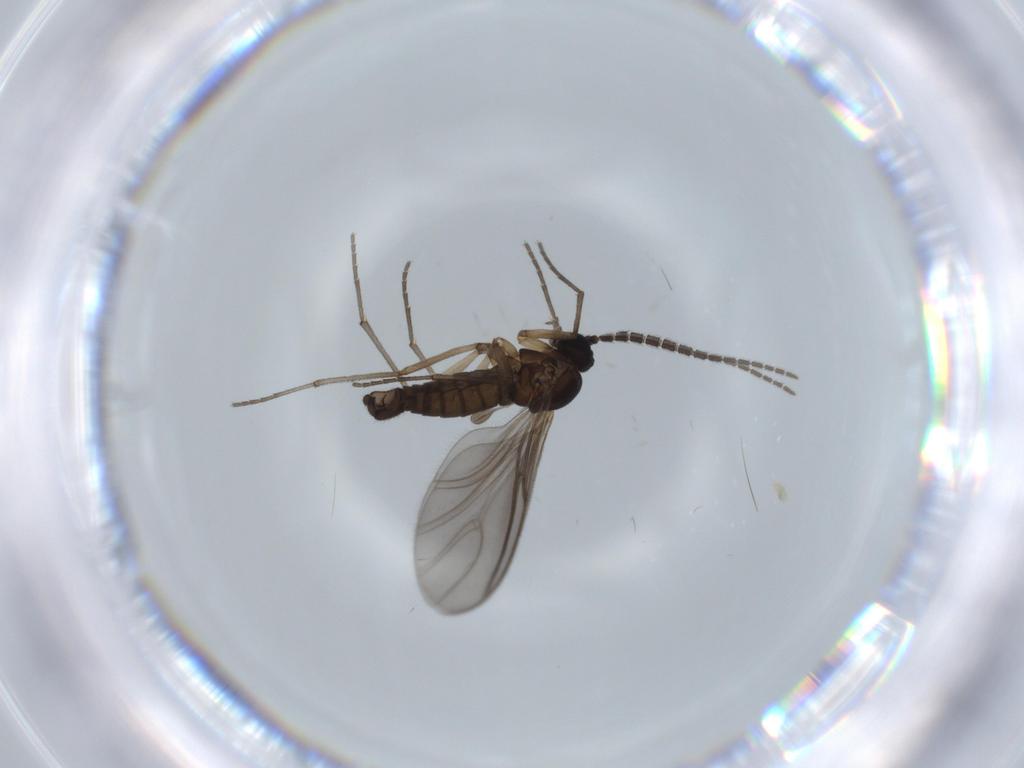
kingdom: Animalia
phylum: Arthropoda
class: Insecta
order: Diptera
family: Sciaridae
